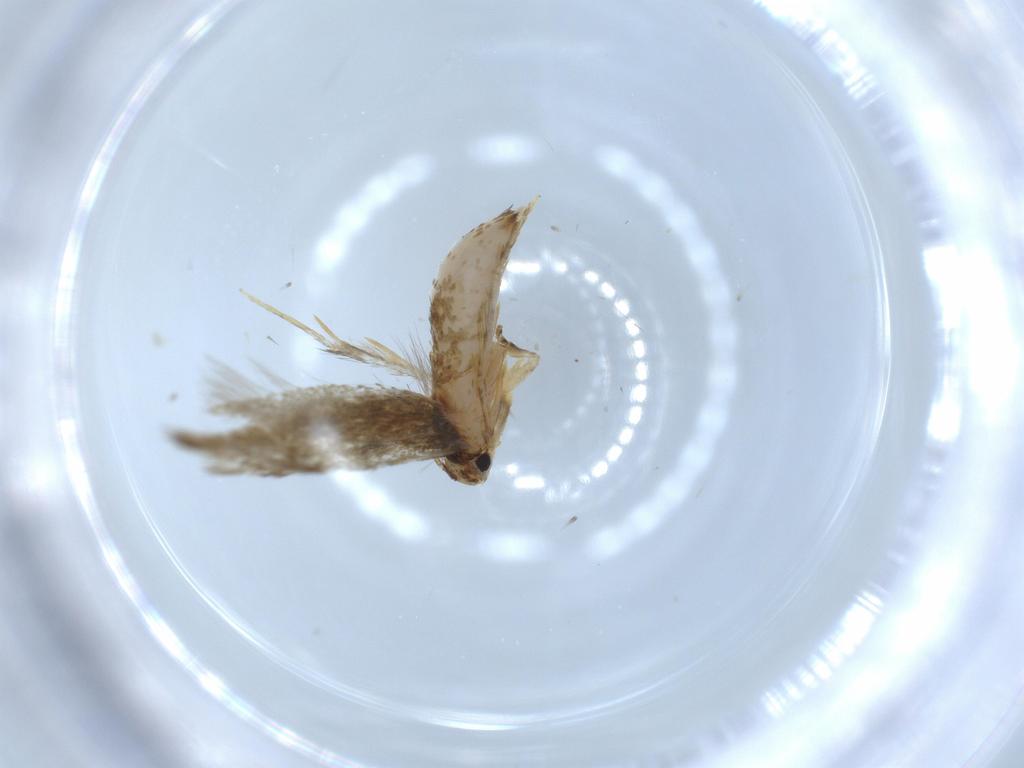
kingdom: Animalia
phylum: Arthropoda
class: Insecta
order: Lepidoptera
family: Tineidae
